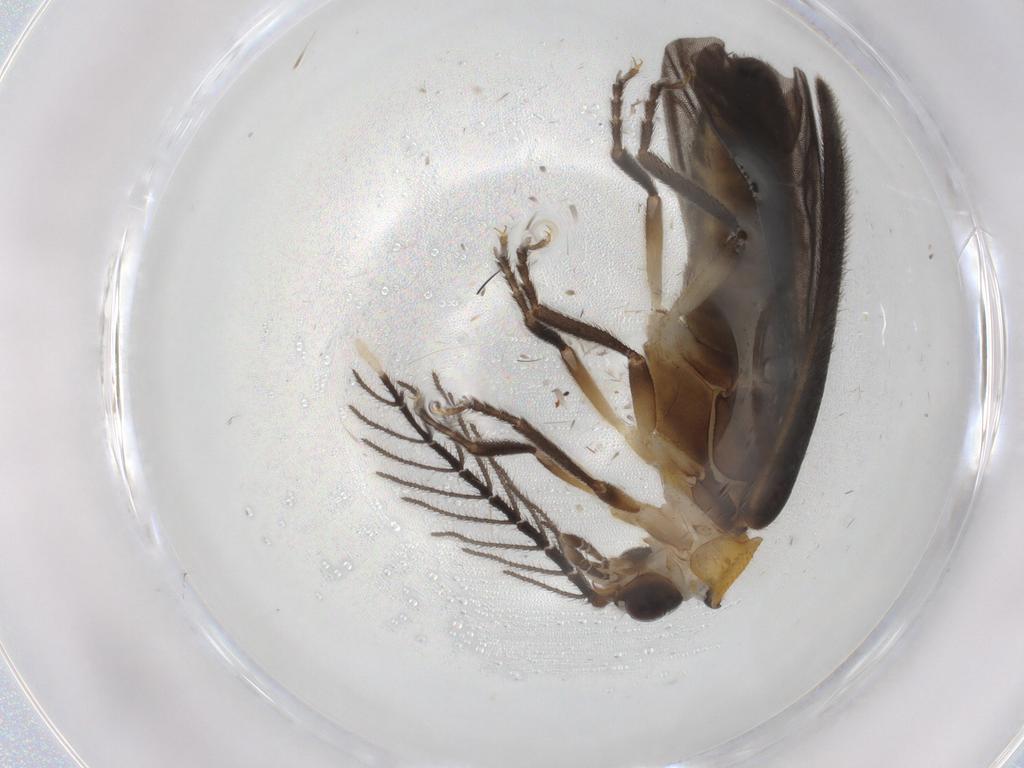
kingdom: Animalia
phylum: Arthropoda
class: Insecta
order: Coleoptera
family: Lampyridae
